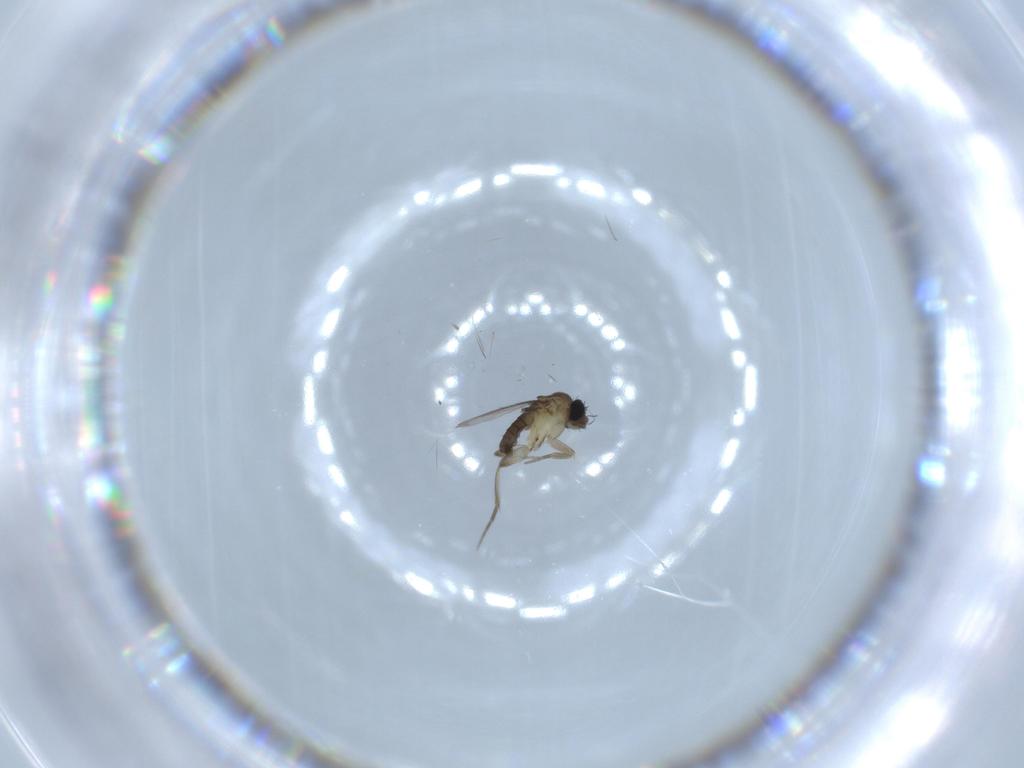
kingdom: Animalia
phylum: Arthropoda
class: Insecta
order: Diptera
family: Phoridae
